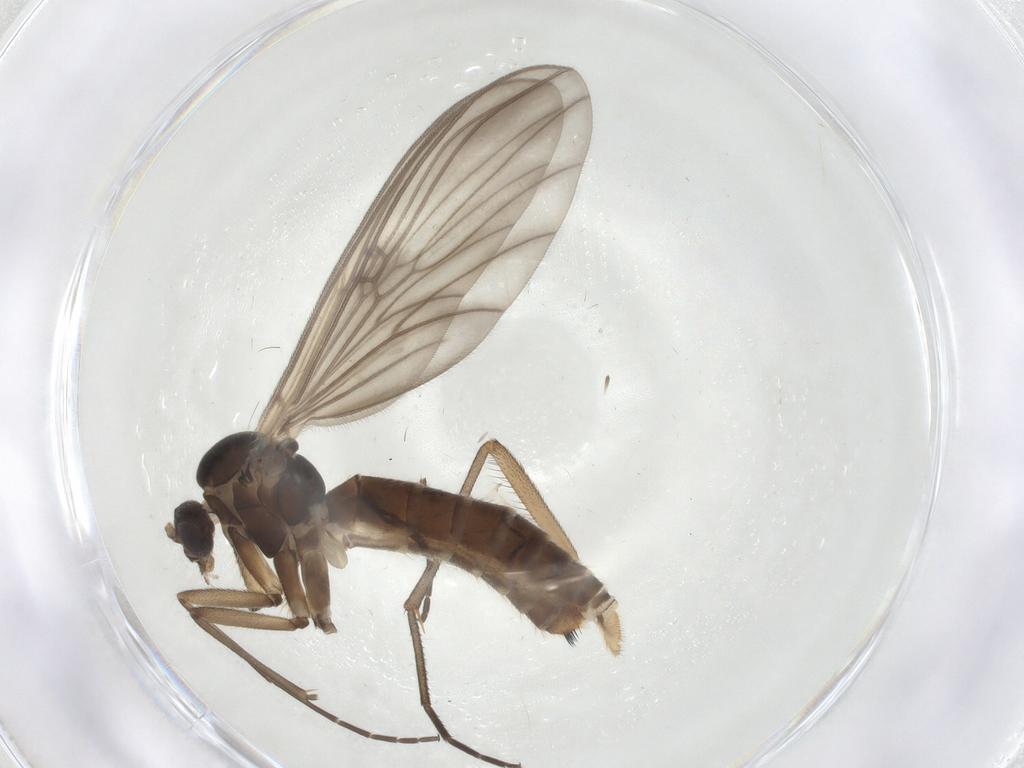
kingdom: Animalia
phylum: Arthropoda
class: Insecta
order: Diptera
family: Mycetophilidae
